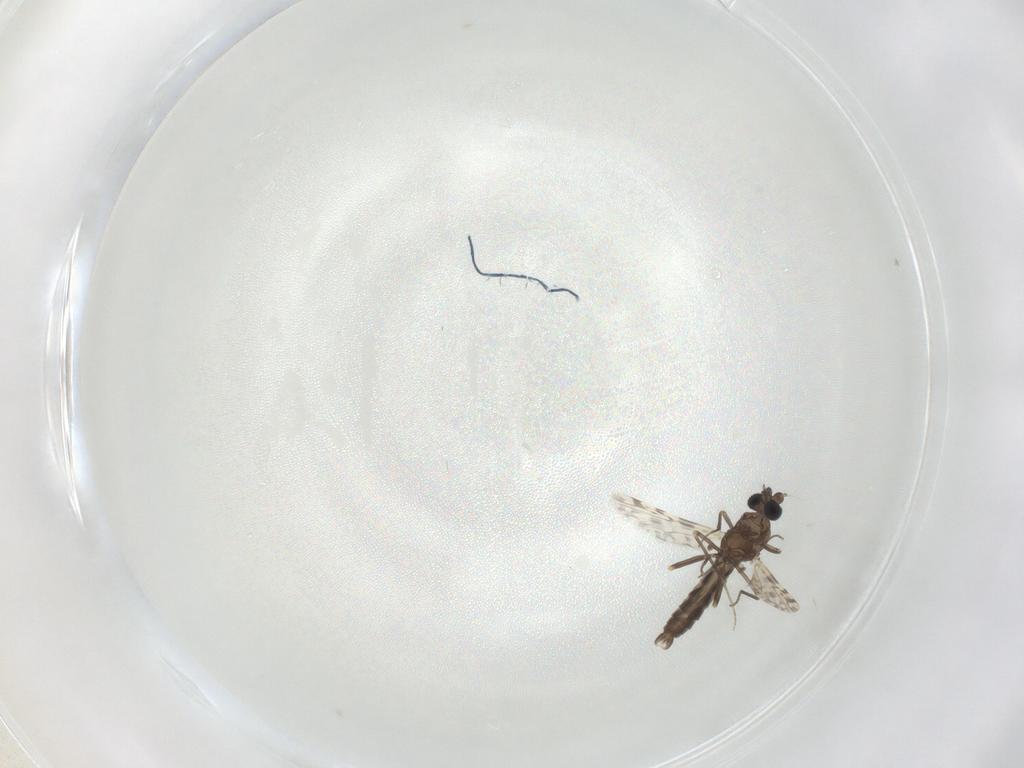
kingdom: Animalia
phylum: Arthropoda
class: Insecta
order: Diptera
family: Ceratopogonidae
